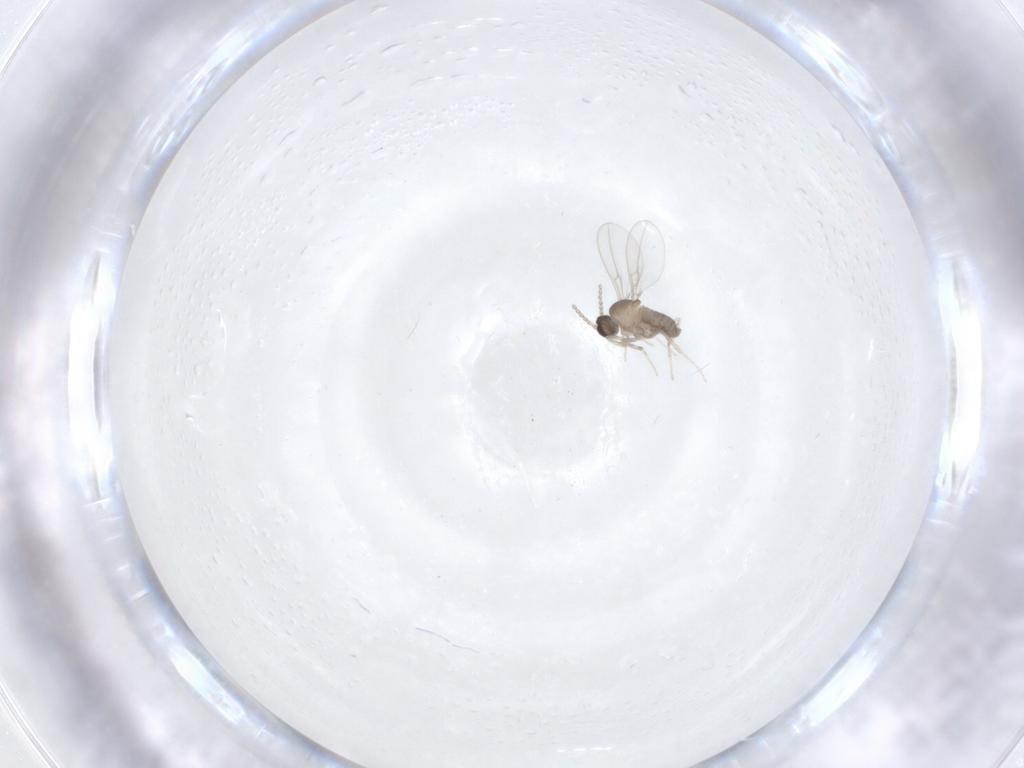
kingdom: Animalia
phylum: Arthropoda
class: Insecta
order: Diptera
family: Cecidomyiidae
